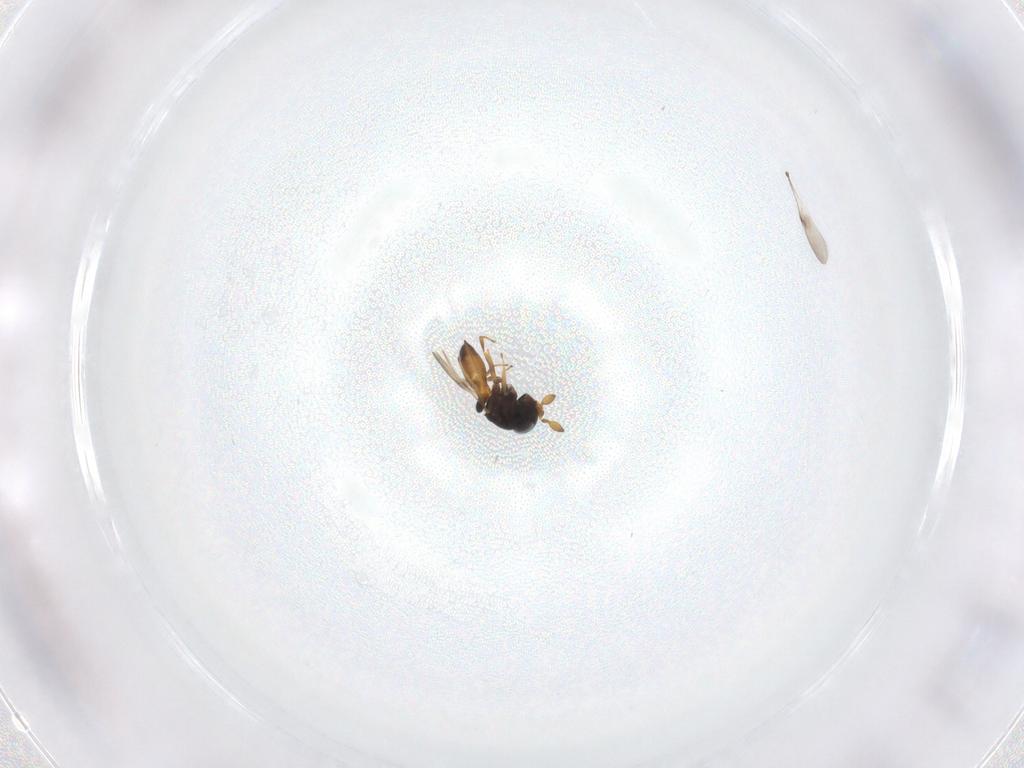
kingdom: Animalia
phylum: Arthropoda
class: Insecta
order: Hymenoptera
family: Scelionidae
